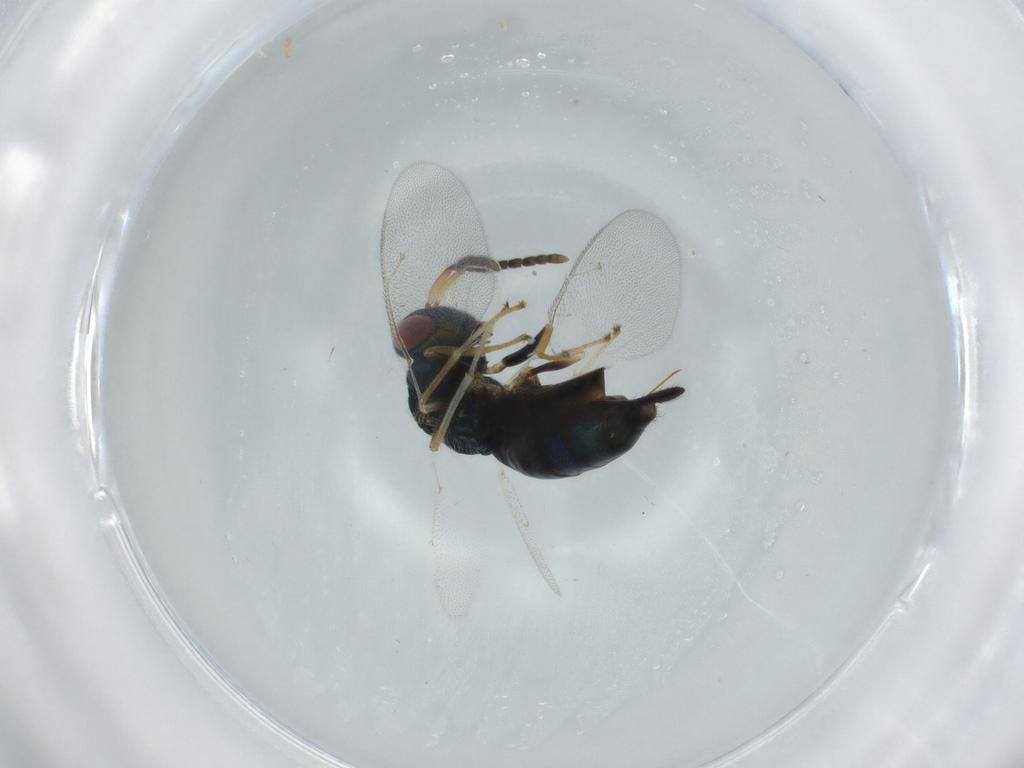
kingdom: Animalia
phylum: Arthropoda
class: Insecta
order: Hymenoptera
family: Pteromalidae
